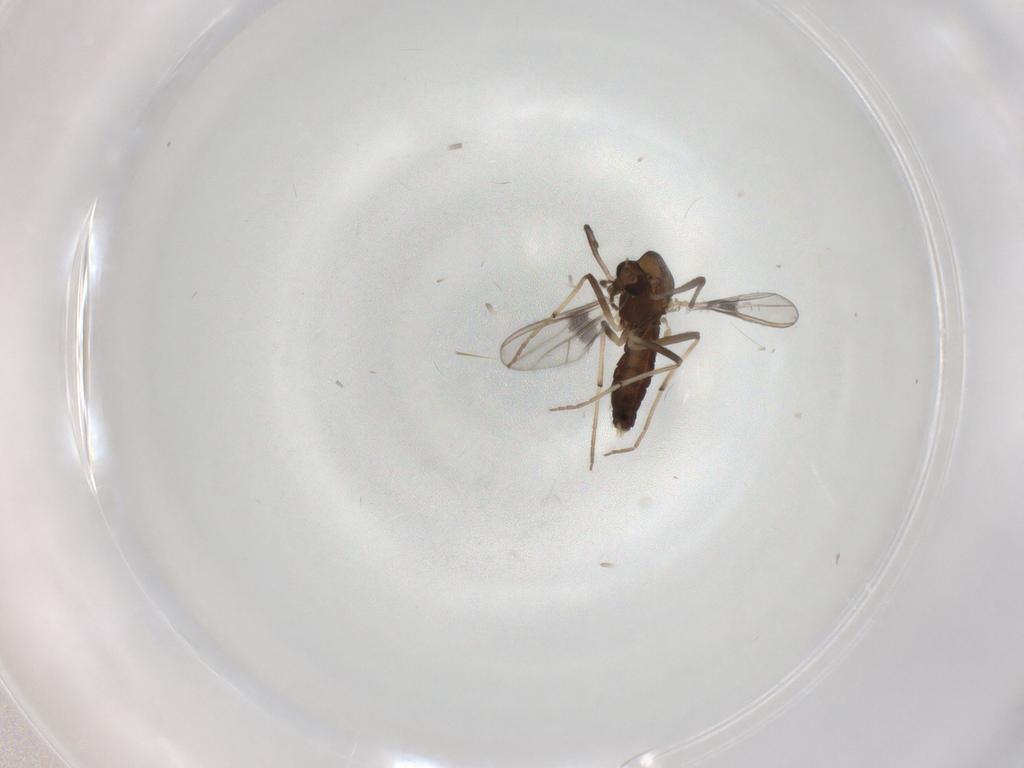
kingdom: Animalia
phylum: Arthropoda
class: Insecta
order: Diptera
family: Chironomidae
